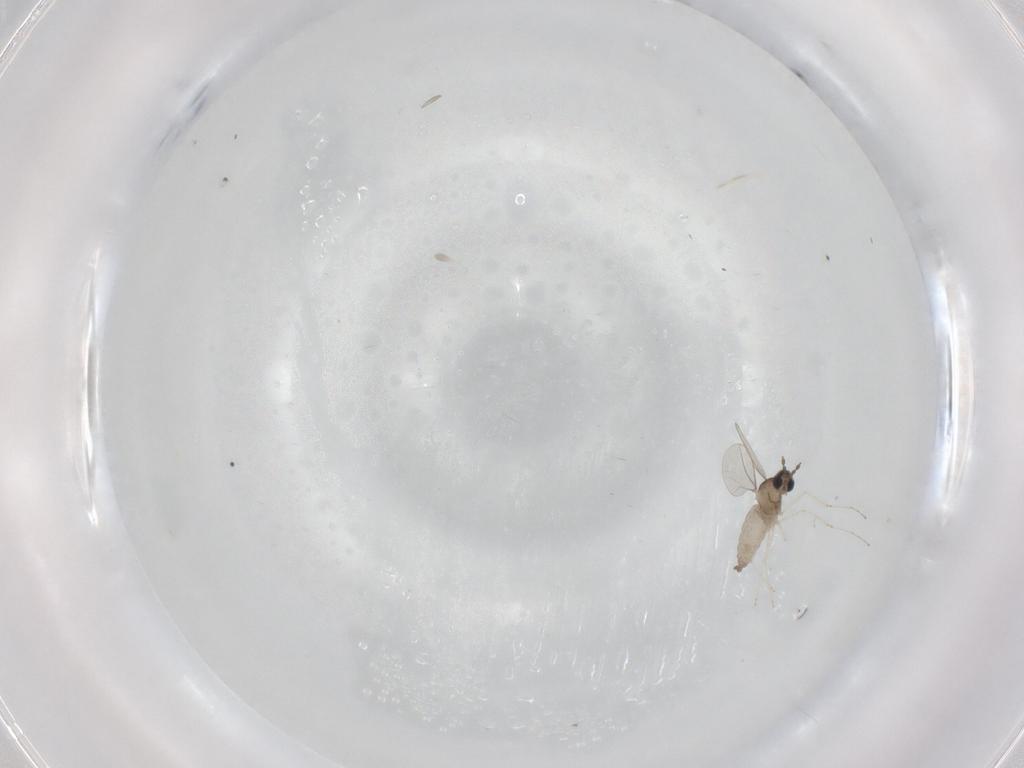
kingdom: Animalia
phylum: Arthropoda
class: Insecta
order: Diptera
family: Cecidomyiidae
